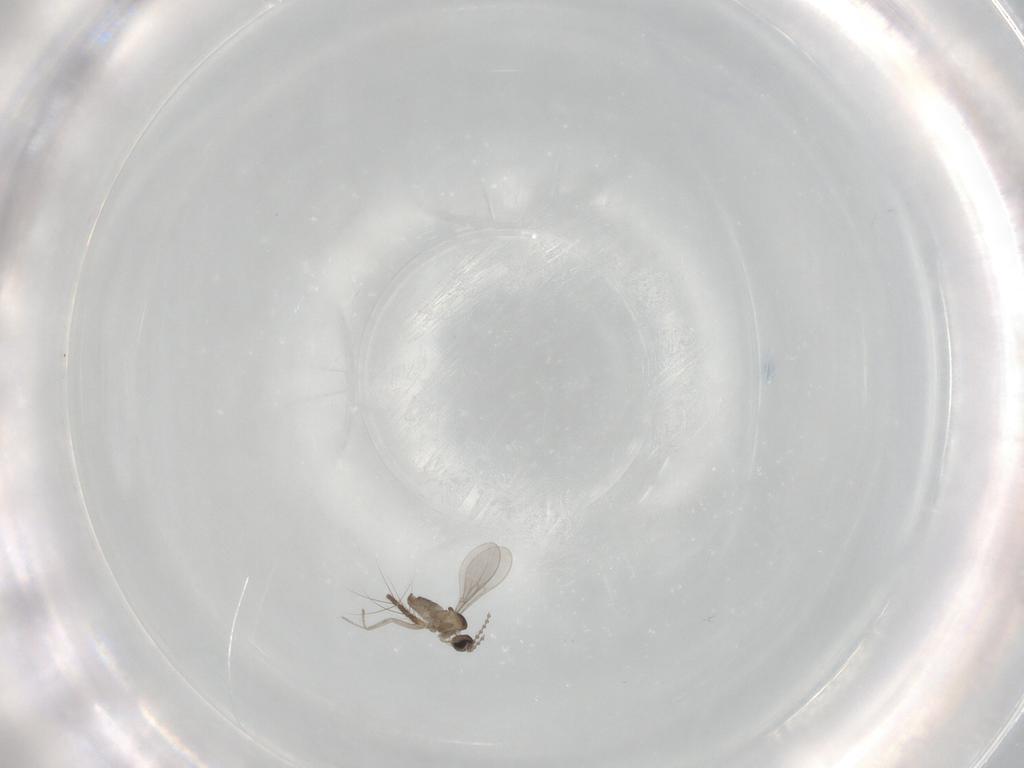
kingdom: Animalia
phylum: Arthropoda
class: Insecta
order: Diptera
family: Cecidomyiidae
